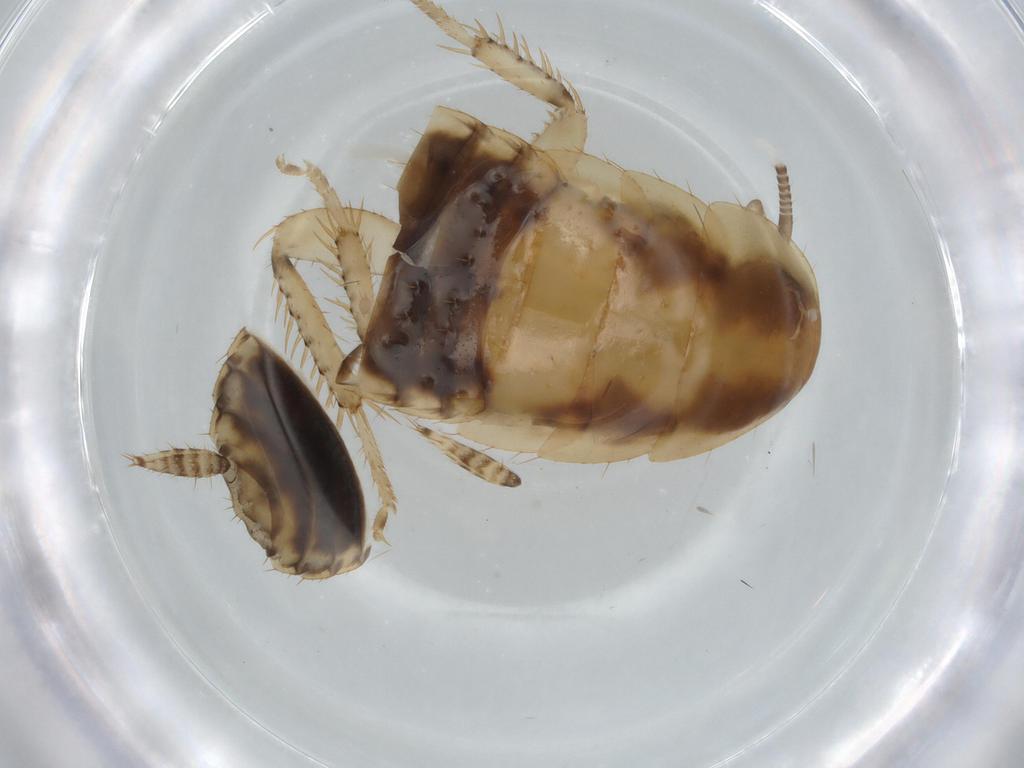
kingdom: Animalia
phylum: Arthropoda
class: Insecta
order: Blattodea
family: Ectobiidae
